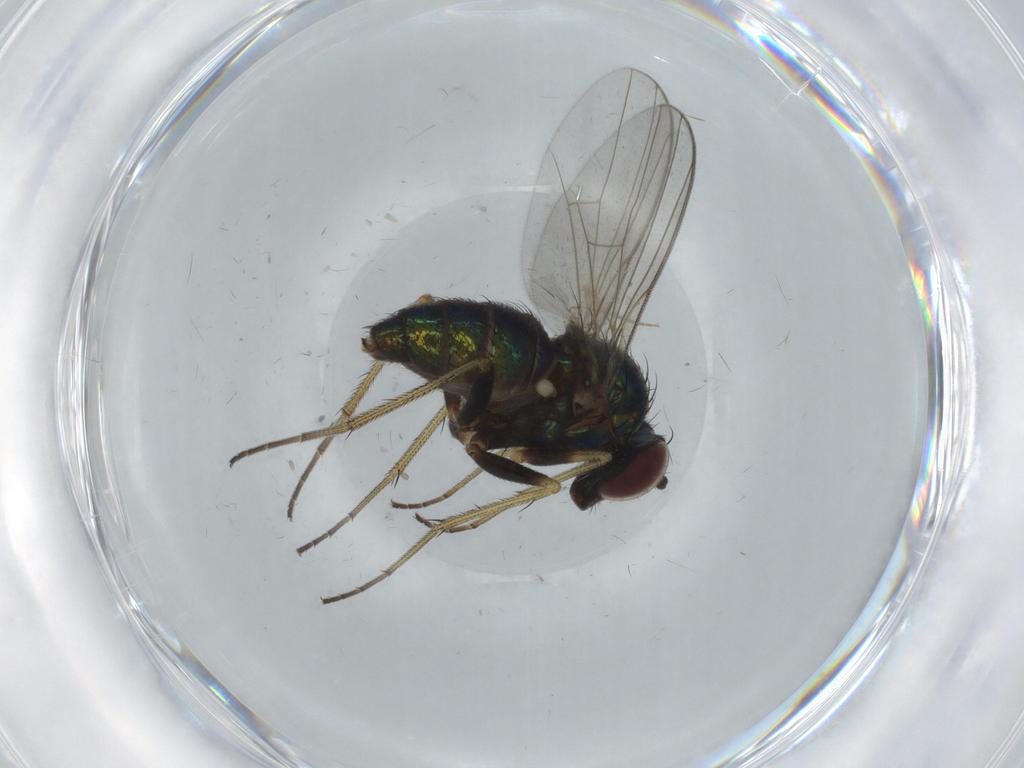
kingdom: Animalia
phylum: Arthropoda
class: Insecta
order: Diptera
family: Dolichopodidae
